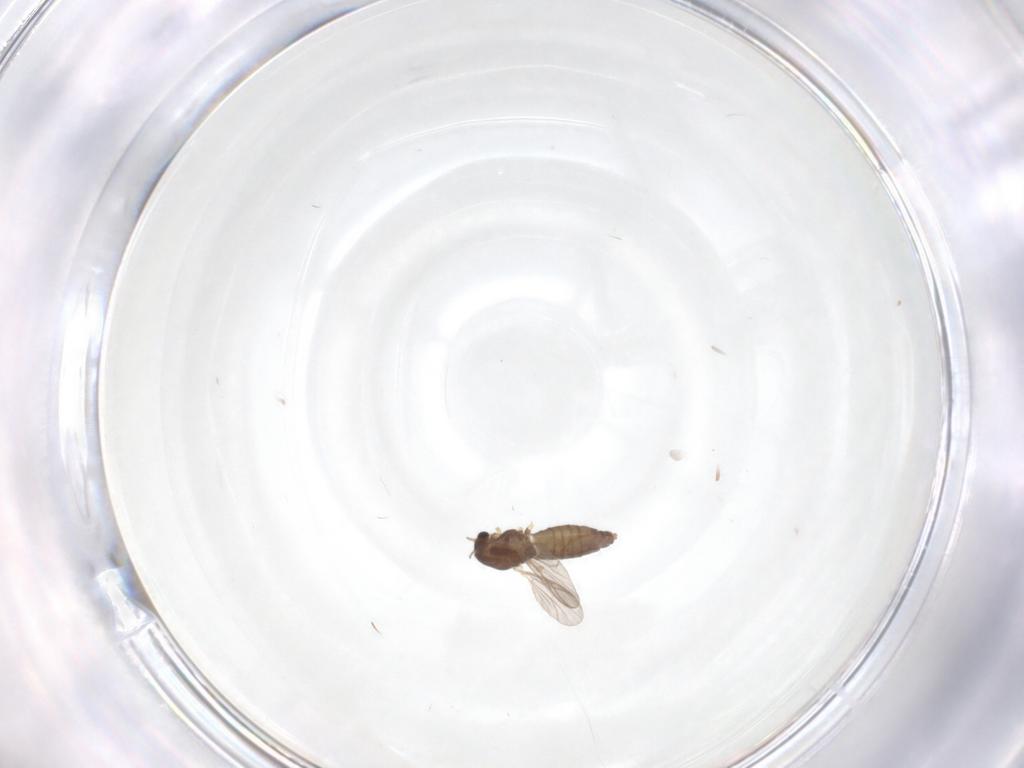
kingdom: Animalia
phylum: Arthropoda
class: Insecta
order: Diptera
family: Chironomidae
